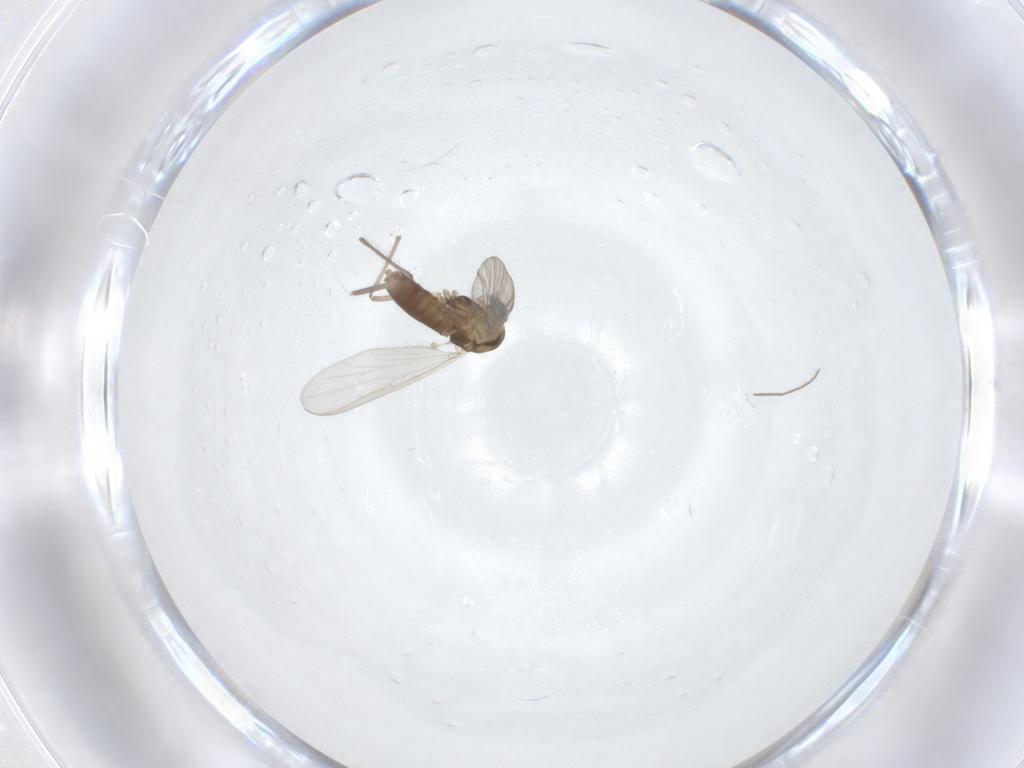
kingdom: Animalia
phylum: Arthropoda
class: Insecta
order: Diptera
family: Chironomidae
